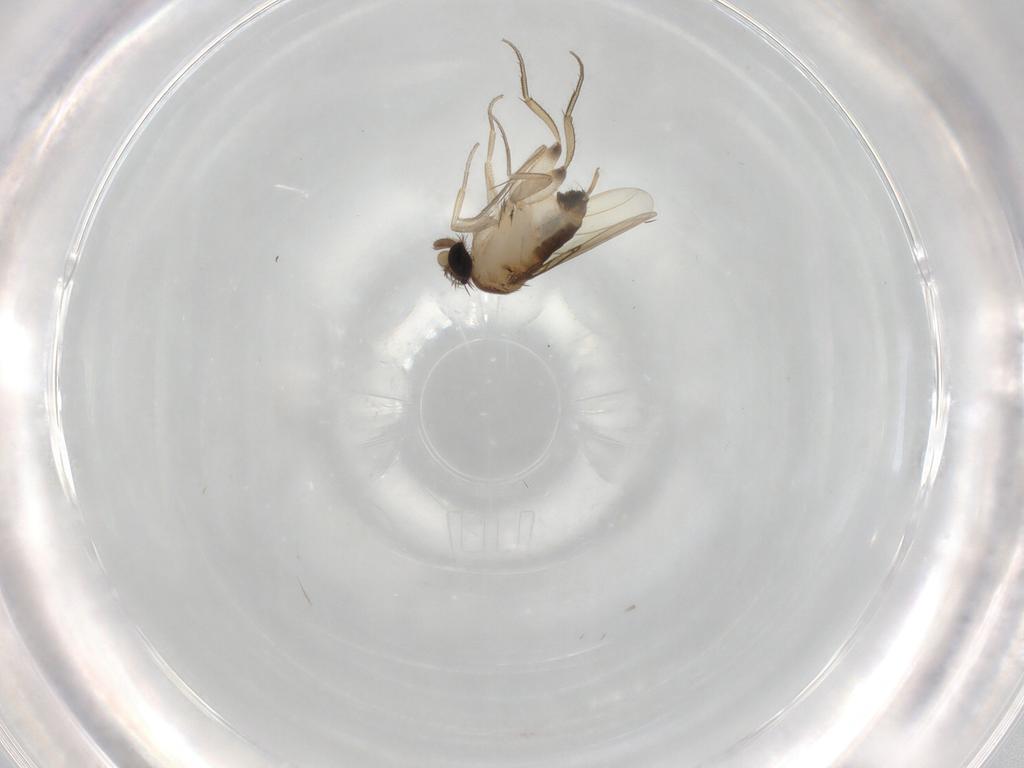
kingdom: Animalia
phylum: Arthropoda
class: Insecta
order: Diptera
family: Phoridae
